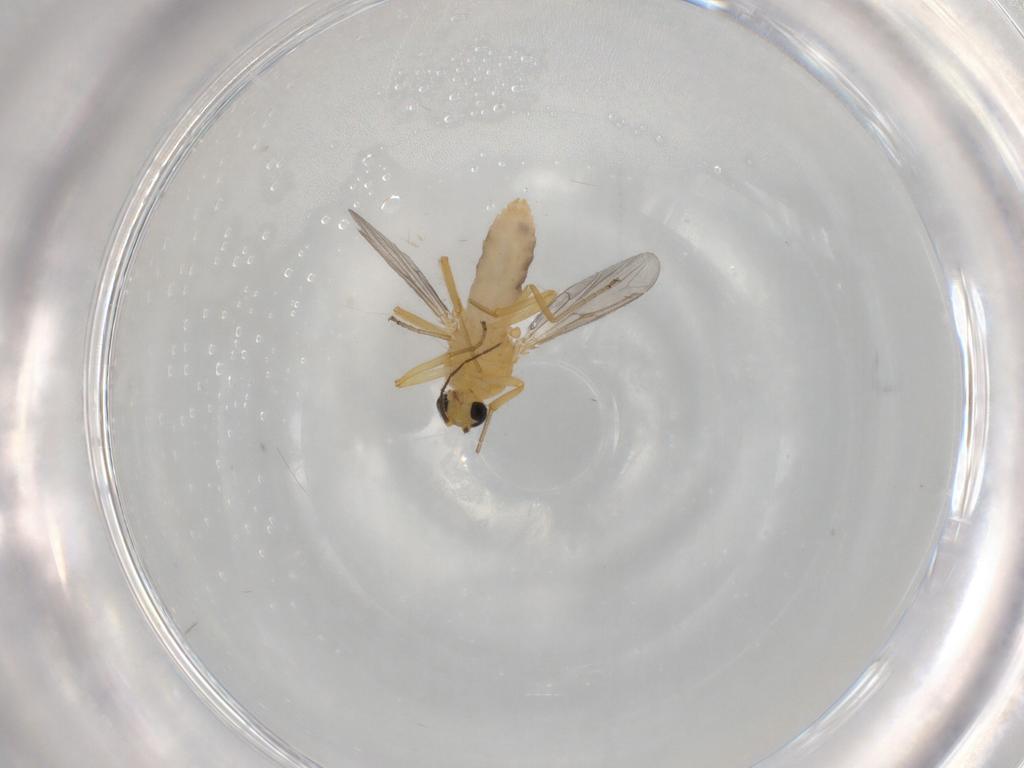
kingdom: Animalia
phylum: Arthropoda
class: Insecta
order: Diptera
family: Ceratopogonidae
